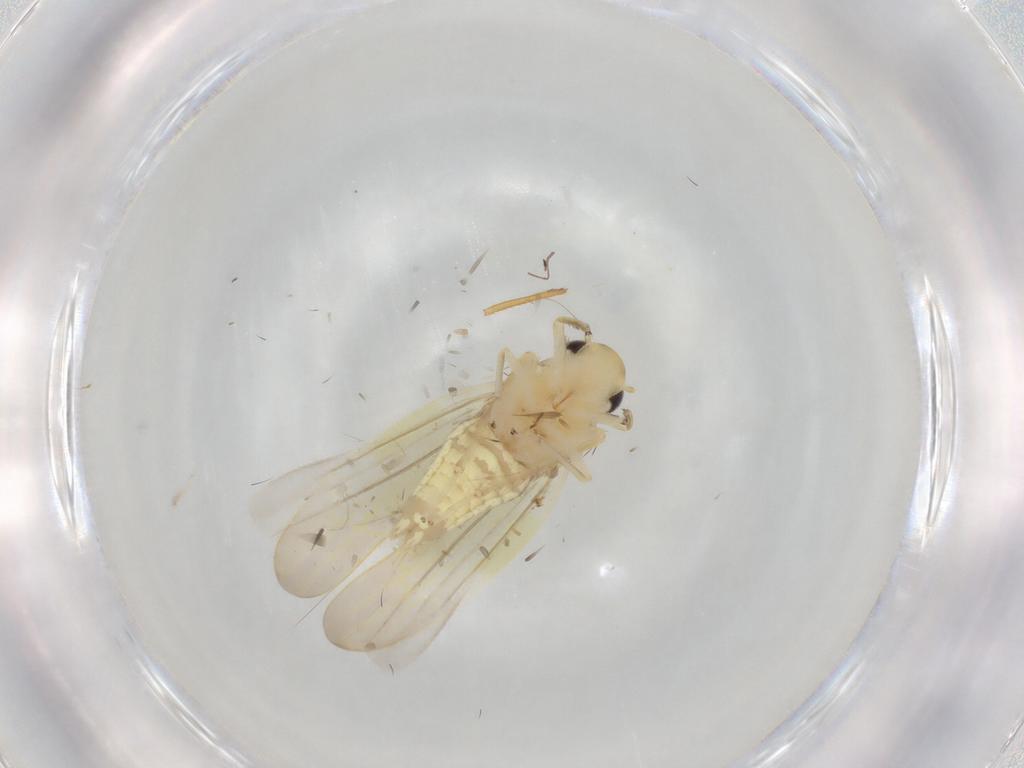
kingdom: Animalia
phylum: Arthropoda
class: Insecta
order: Hemiptera
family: Cicadellidae
